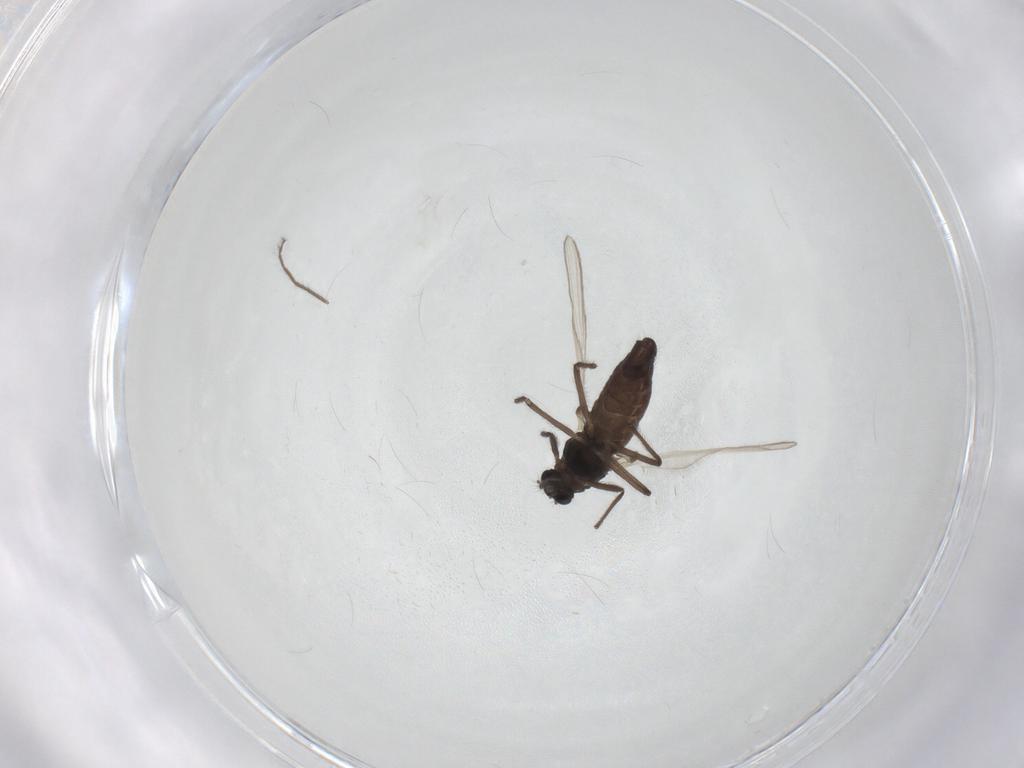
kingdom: Animalia
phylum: Arthropoda
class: Insecta
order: Diptera
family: Chironomidae
